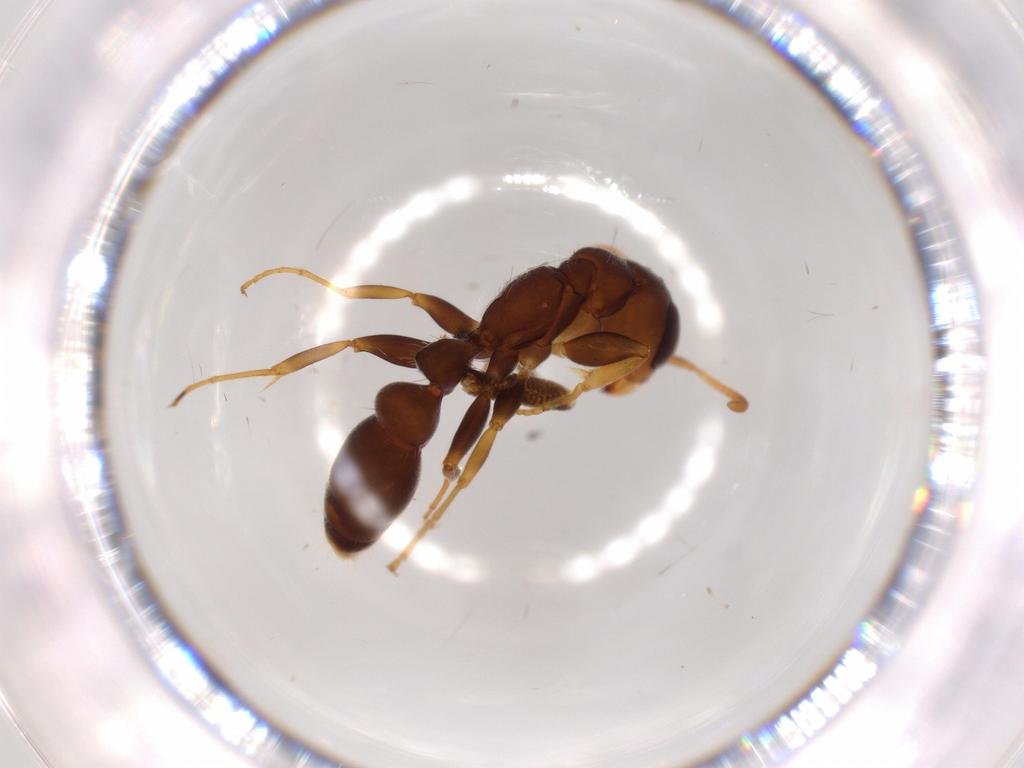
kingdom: Animalia
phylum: Arthropoda
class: Insecta
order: Hymenoptera
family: Formicidae
